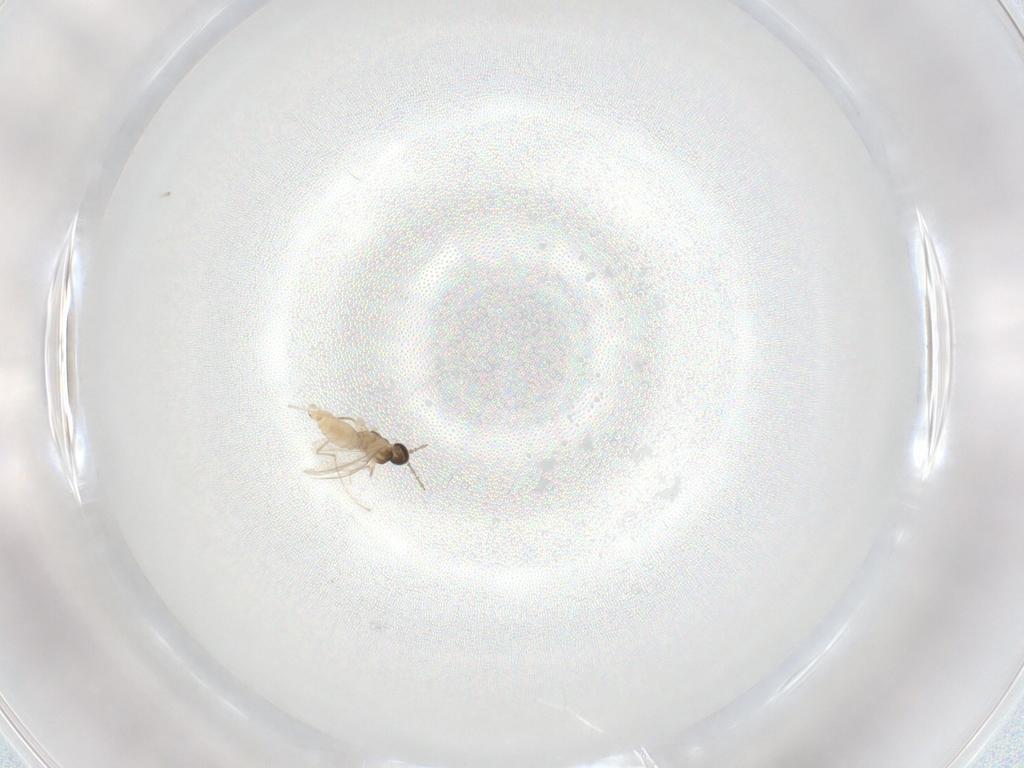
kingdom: Animalia
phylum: Arthropoda
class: Insecta
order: Diptera
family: Cecidomyiidae
